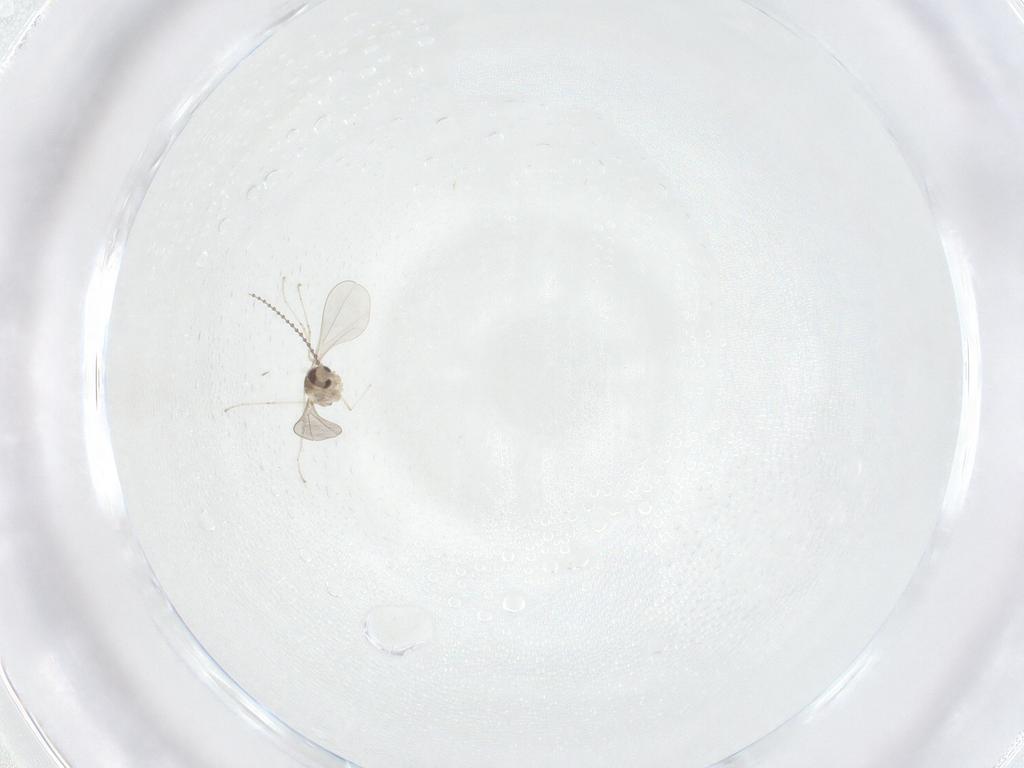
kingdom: Animalia
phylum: Arthropoda
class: Insecta
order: Diptera
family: Cecidomyiidae
